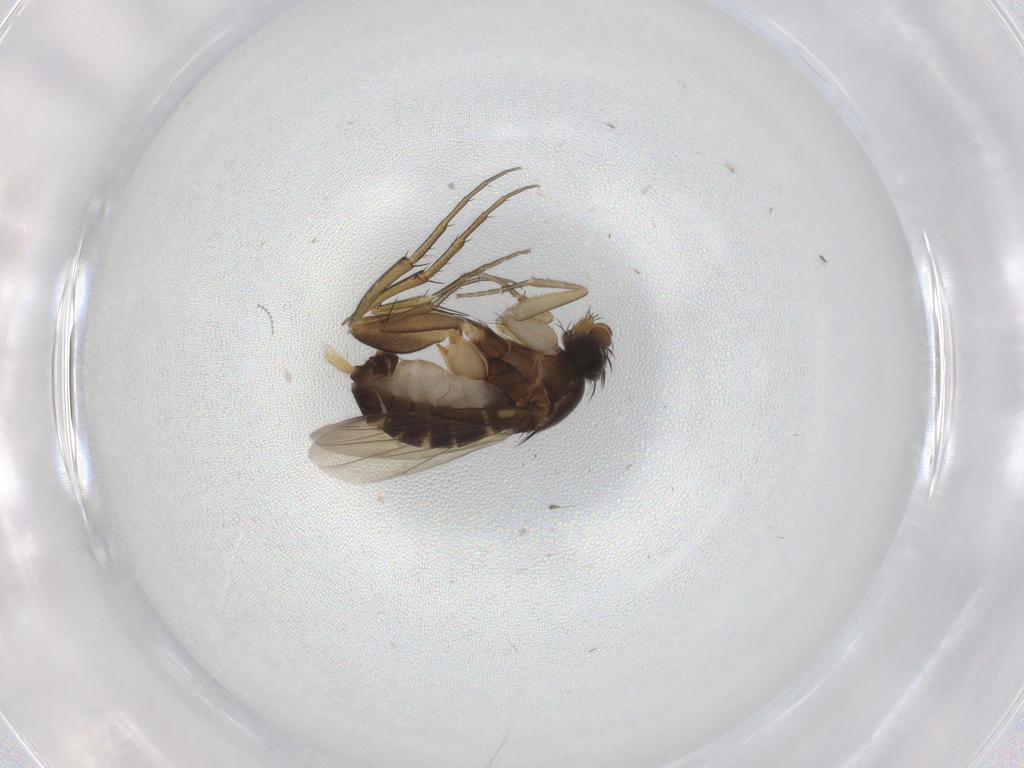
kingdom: Animalia
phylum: Arthropoda
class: Insecta
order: Diptera
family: Phoridae
